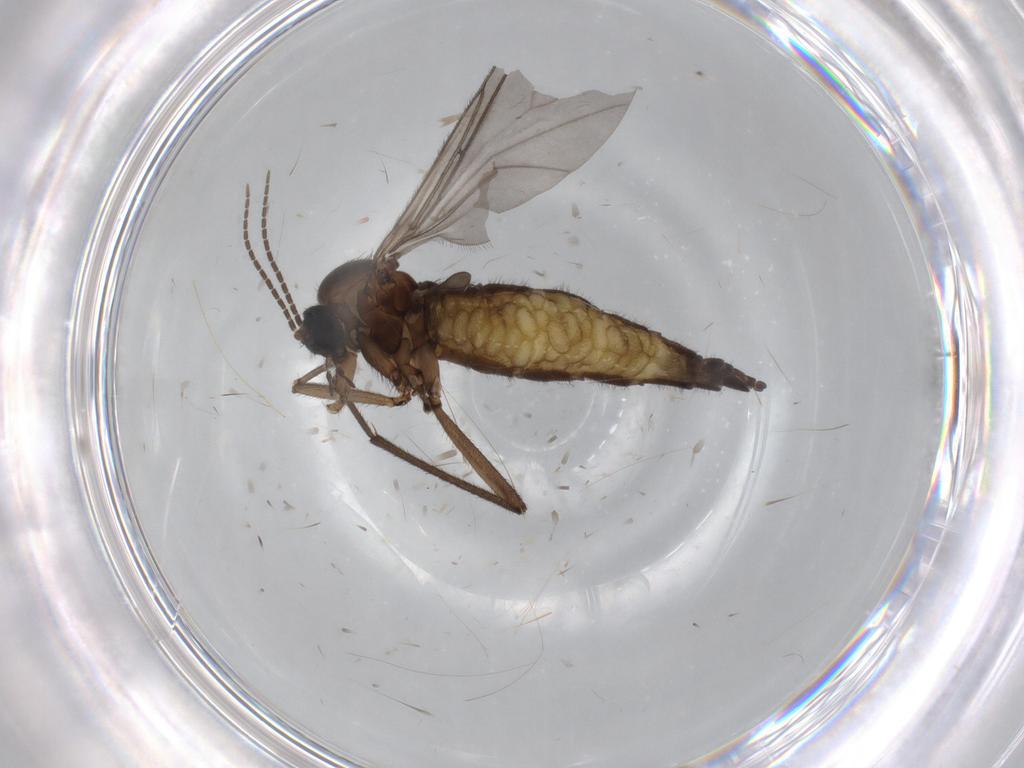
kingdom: Animalia
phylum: Arthropoda
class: Insecta
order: Diptera
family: Sciaridae
